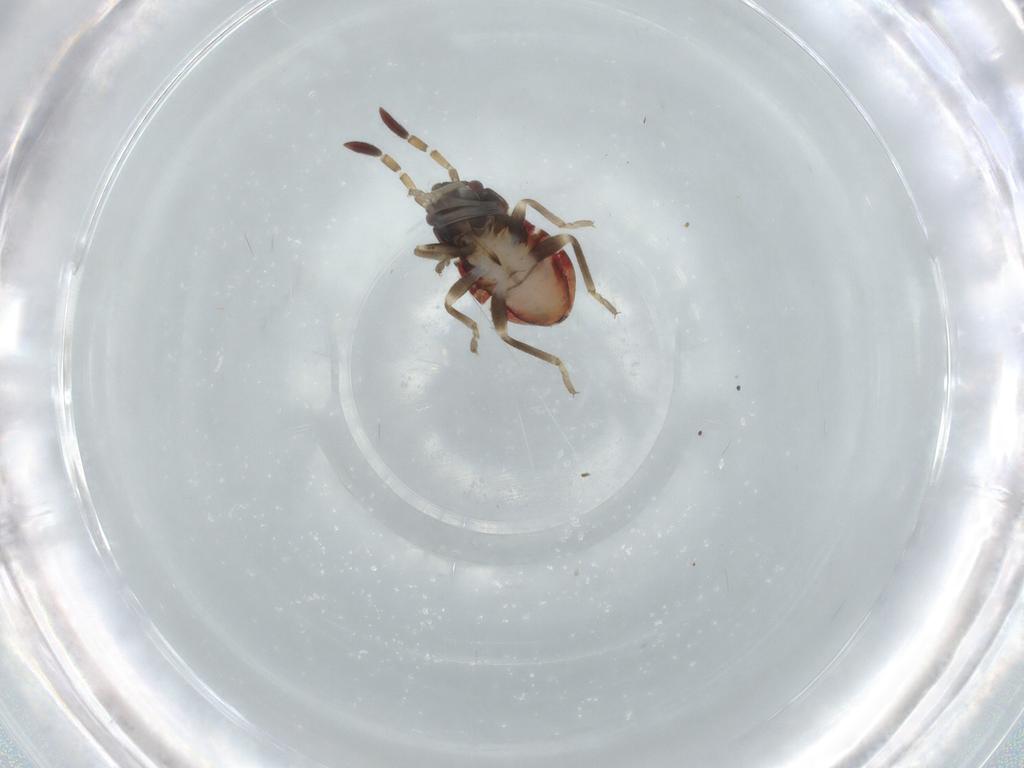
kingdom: Animalia
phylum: Arthropoda
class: Insecta
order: Hemiptera
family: Rhyparochromidae
